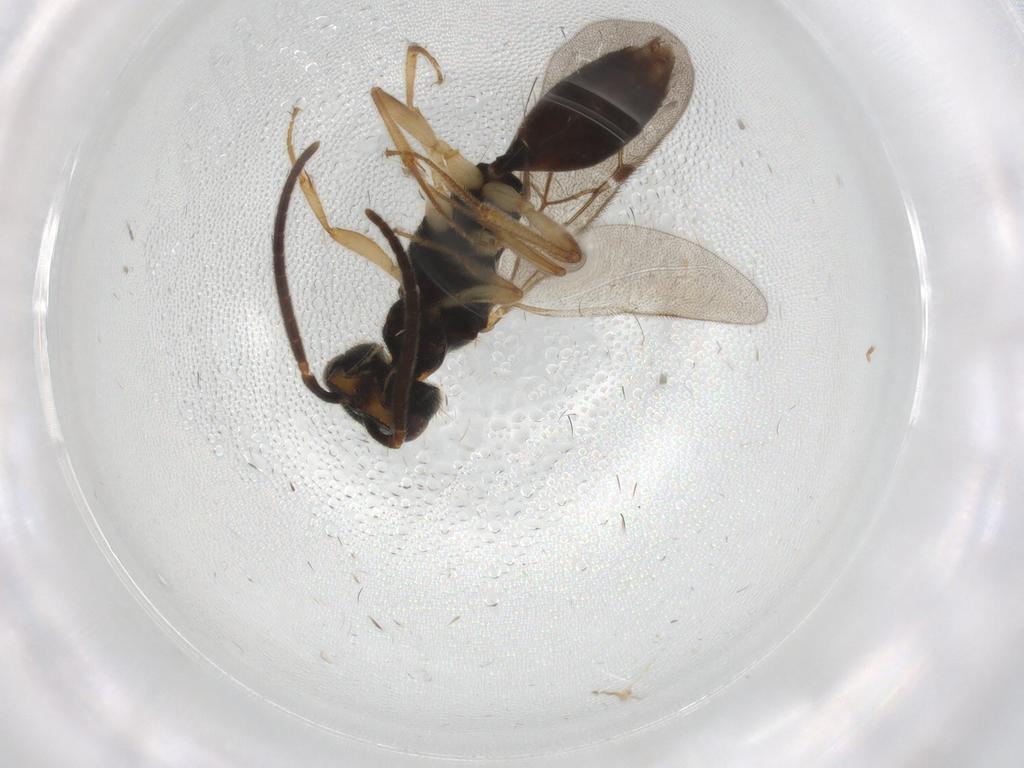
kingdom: Animalia
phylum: Arthropoda
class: Insecta
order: Hymenoptera
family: Bethylidae
